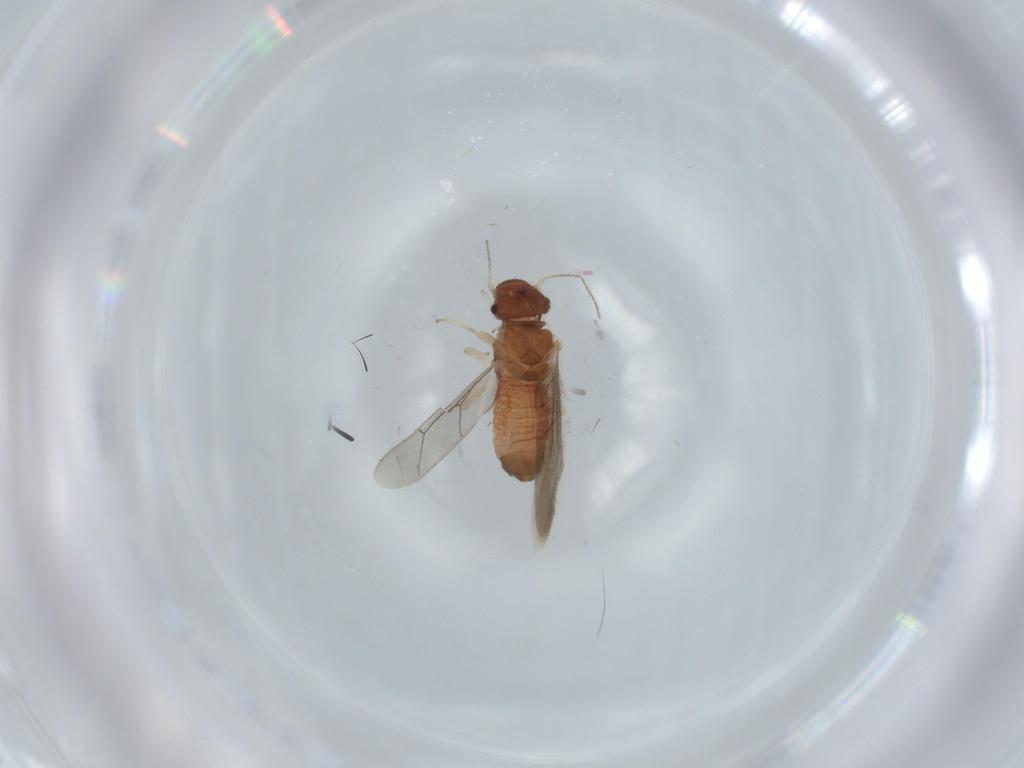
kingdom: Animalia
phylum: Arthropoda
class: Insecta
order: Psocodea
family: Archipsocidae
